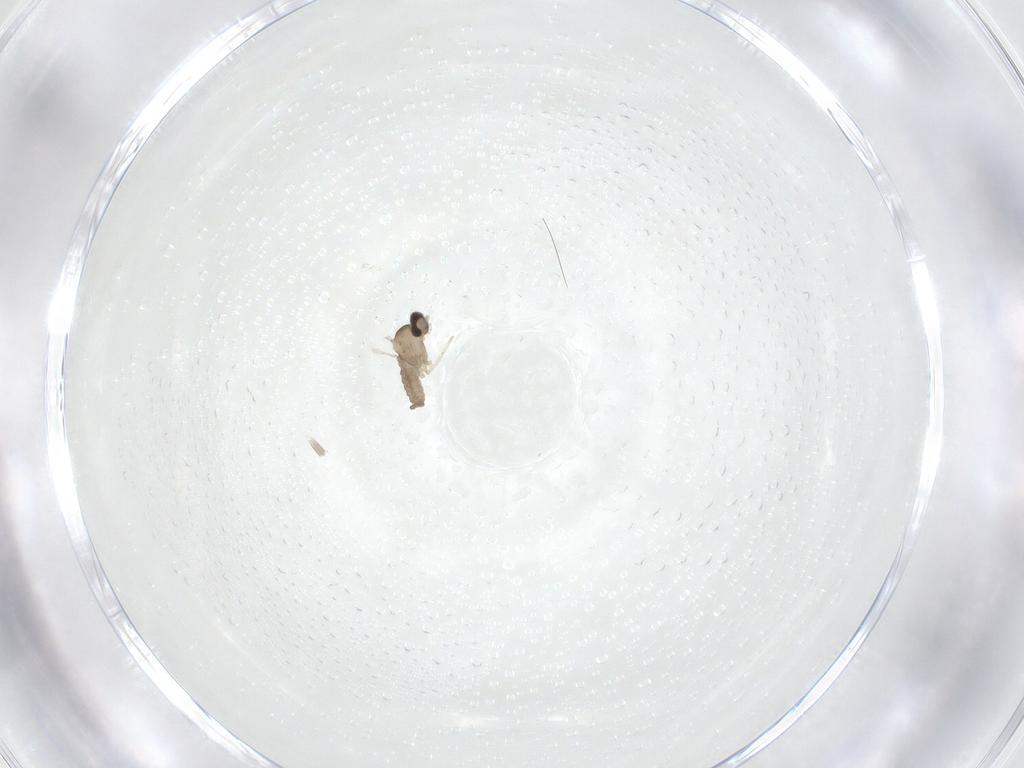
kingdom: Animalia
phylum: Arthropoda
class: Insecta
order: Diptera
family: Cecidomyiidae
